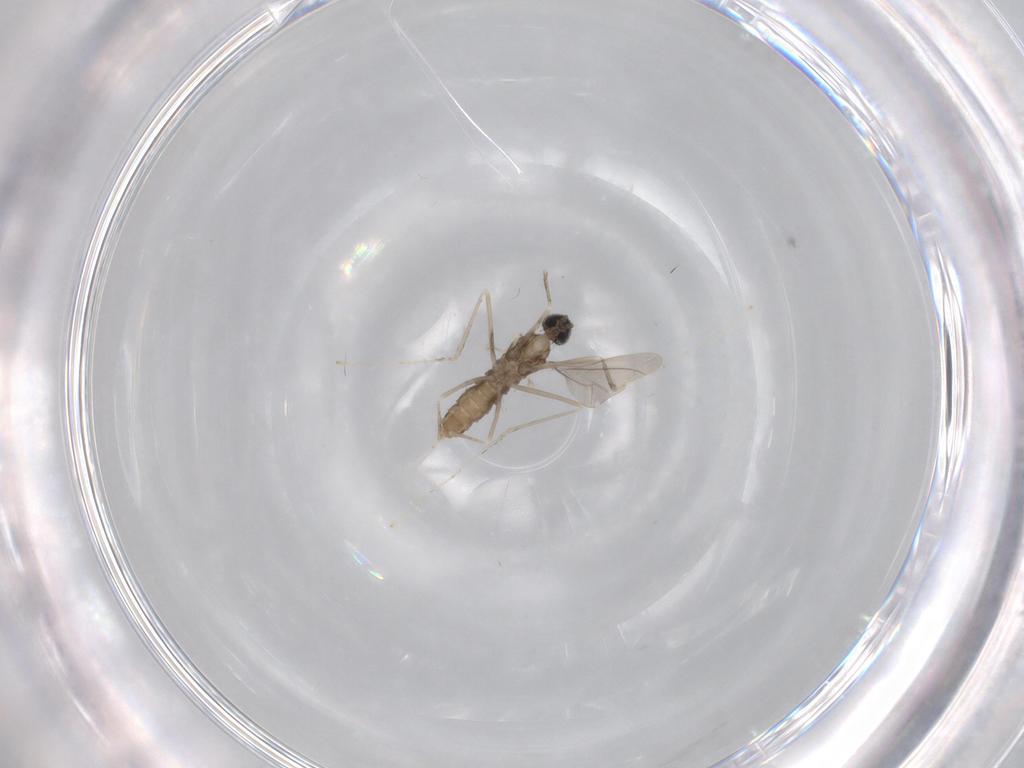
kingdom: Animalia
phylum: Arthropoda
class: Insecta
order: Diptera
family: Cecidomyiidae
